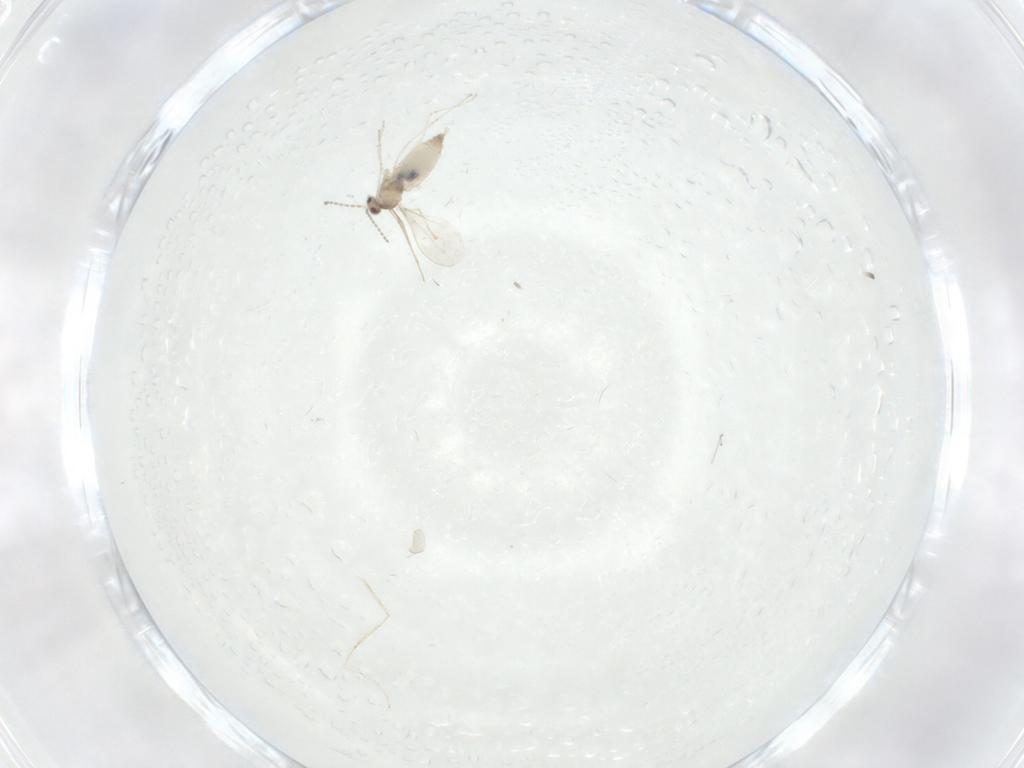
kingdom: Animalia
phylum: Arthropoda
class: Insecta
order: Diptera
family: Cecidomyiidae
